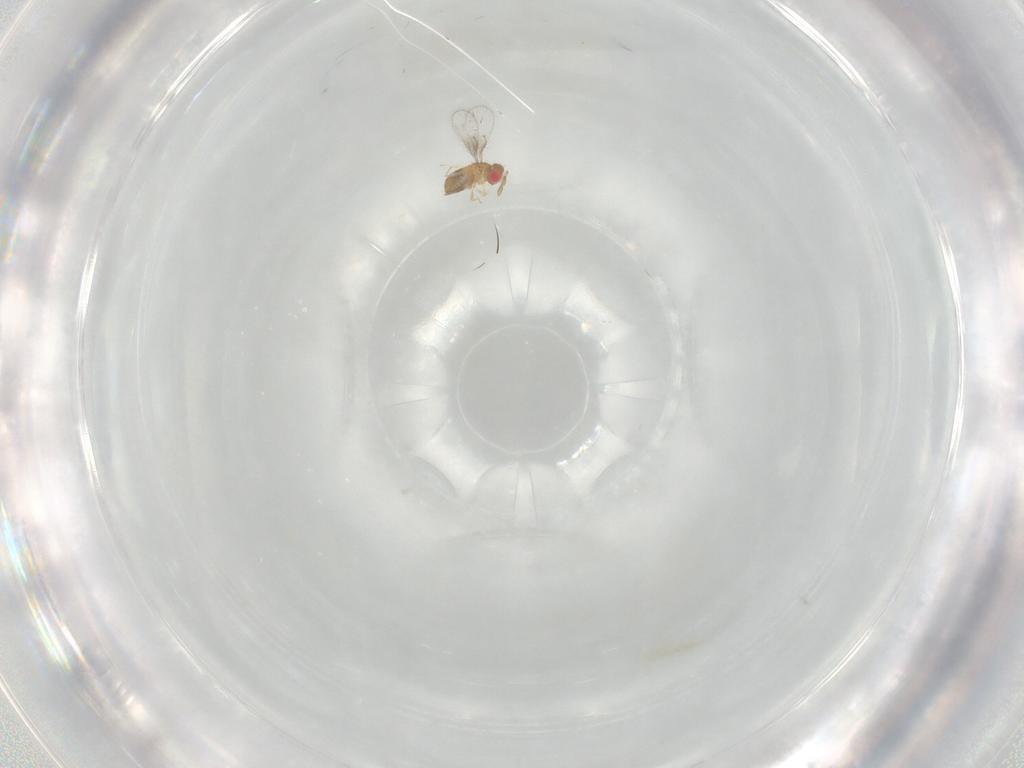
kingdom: Animalia
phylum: Arthropoda
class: Insecta
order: Hymenoptera
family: Trichogrammatidae
